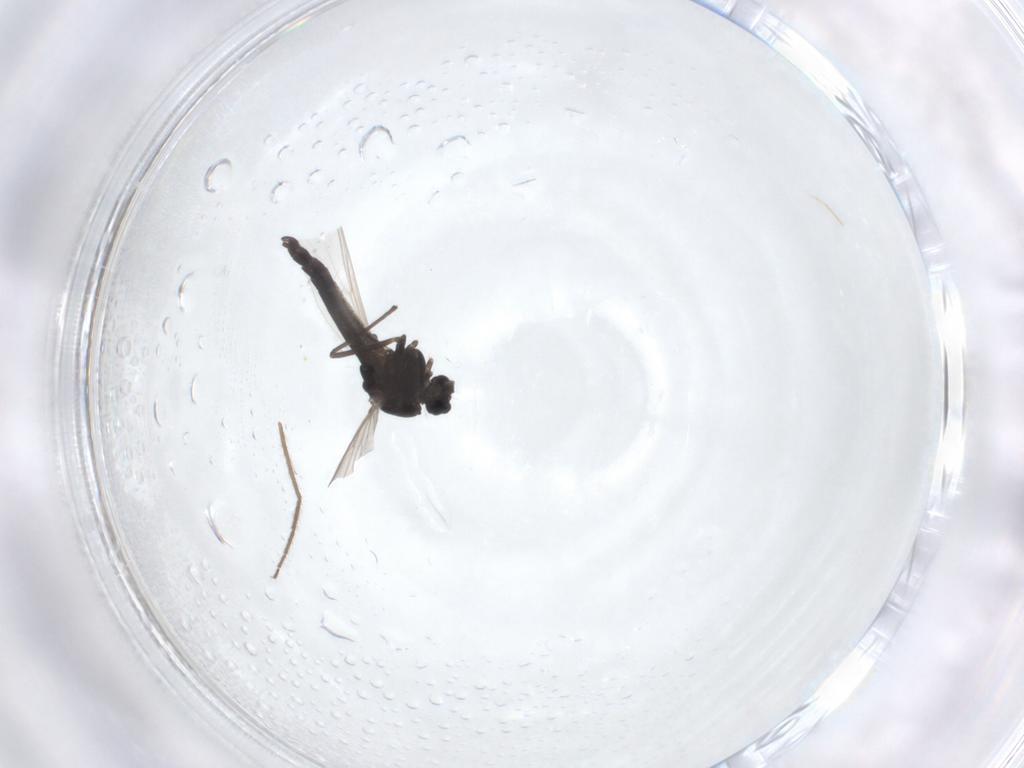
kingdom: Animalia
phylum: Arthropoda
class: Insecta
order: Diptera
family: Chironomidae
